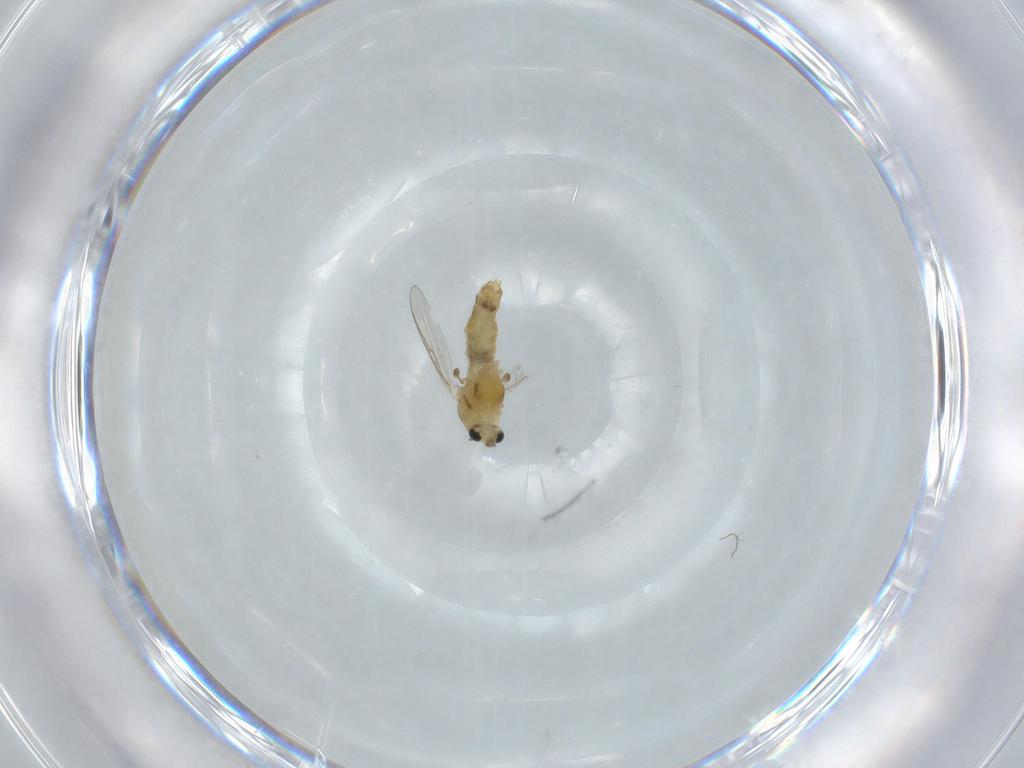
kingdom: Animalia
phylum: Arthropoda
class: Insecta
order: Diptera
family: Chironomidae
